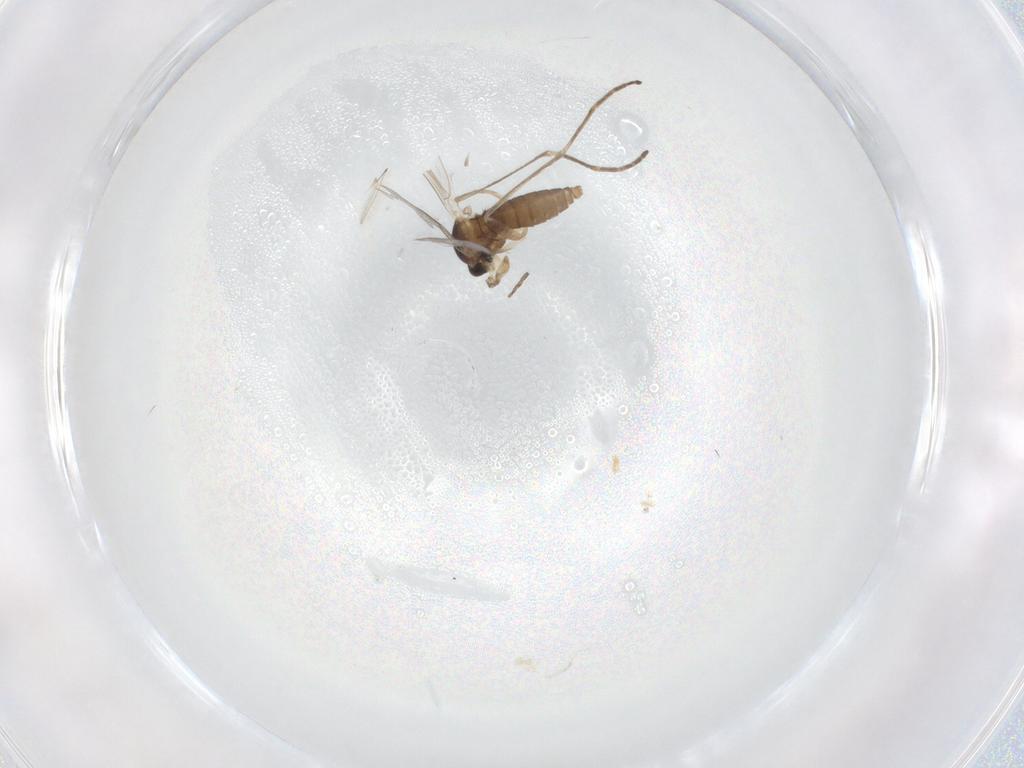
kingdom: Animalia
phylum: Arthropoda
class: Insecta
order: Diptera
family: Cecidomyiidae
